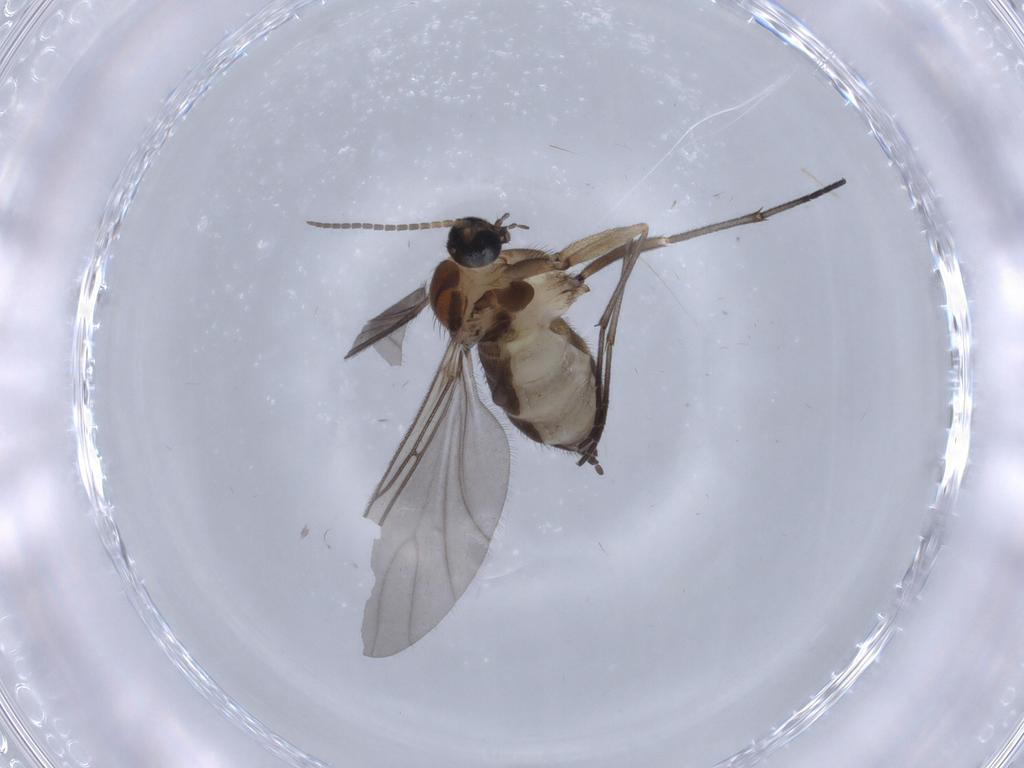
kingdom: Animalia
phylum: Arthropoda
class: Insecta
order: Diptera
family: Sciaridae
